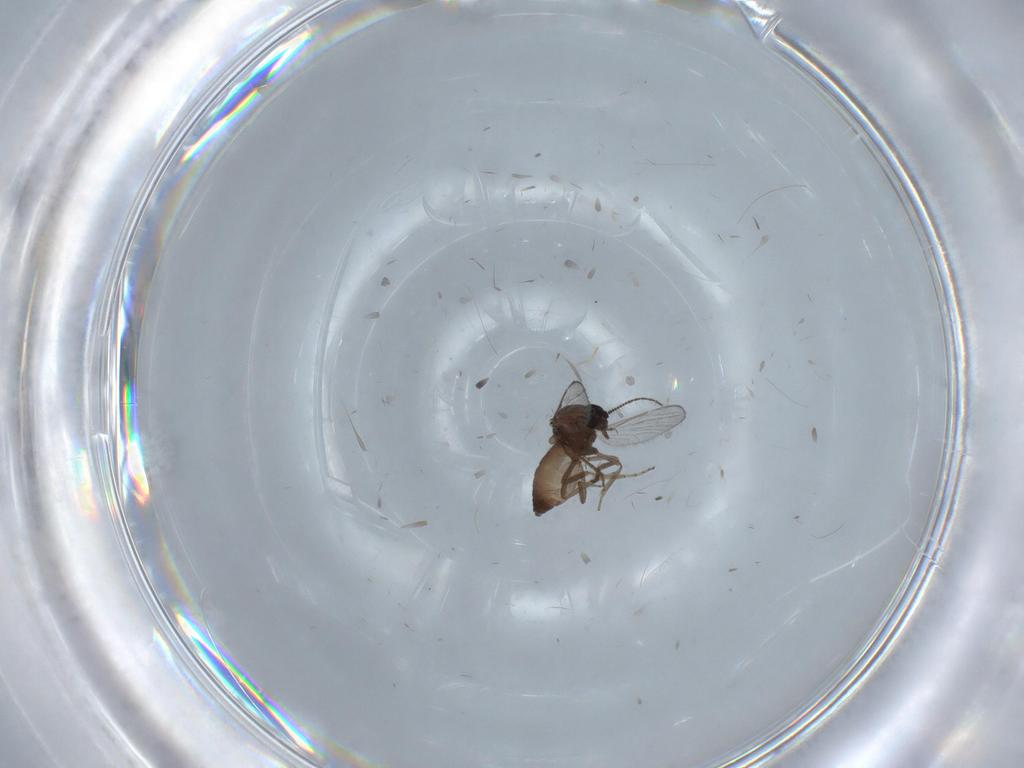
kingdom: Animalia
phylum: Arthropoda
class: Insecta
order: Diptera
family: Ceratopogonidae
